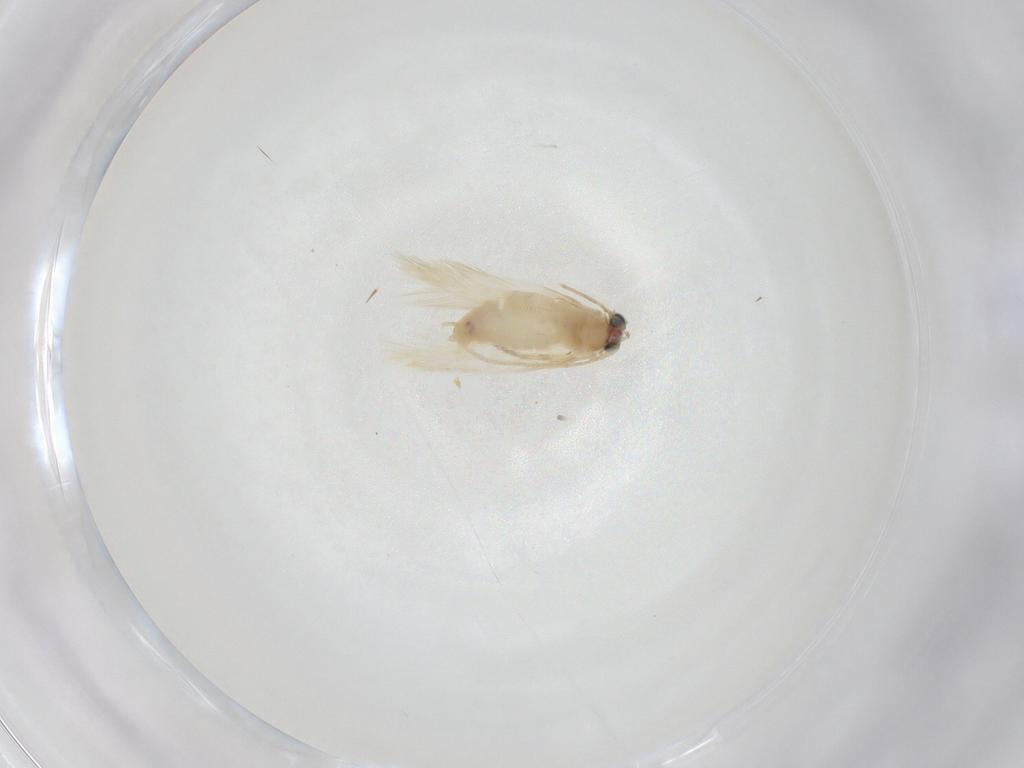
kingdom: Animalia
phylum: Arthropoda
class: Insecta
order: Lepidoptera
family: Nepticulidae
